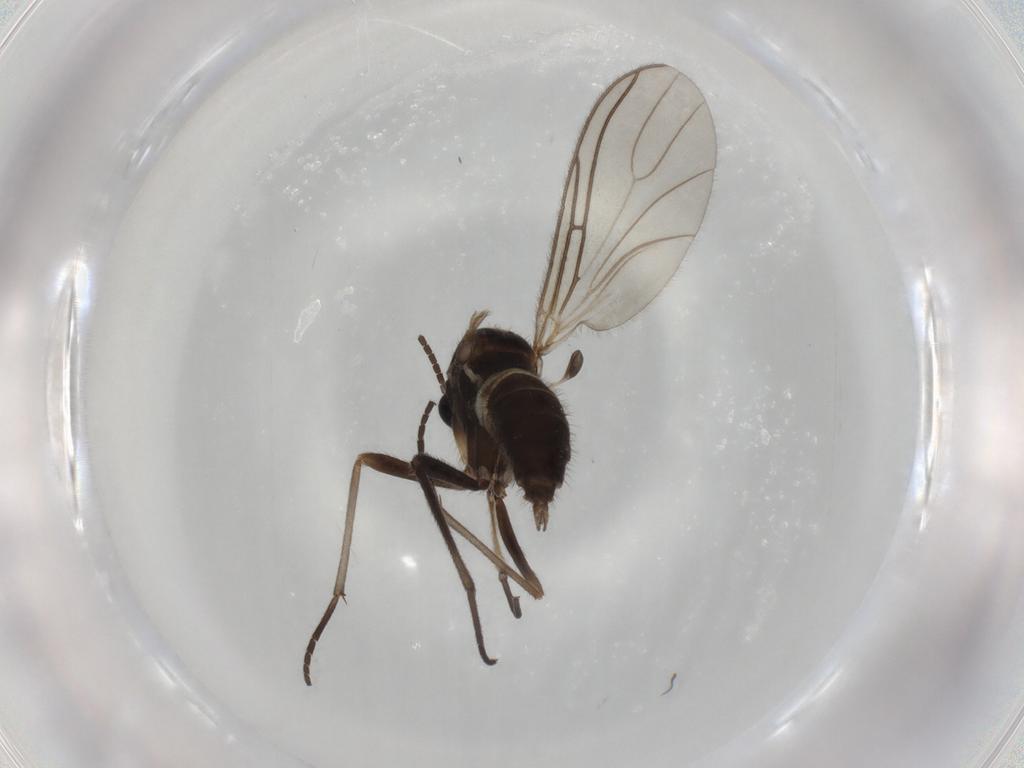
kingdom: Animalia
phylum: Arthropoda
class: Insecta
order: Diptera
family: Sciaridae
